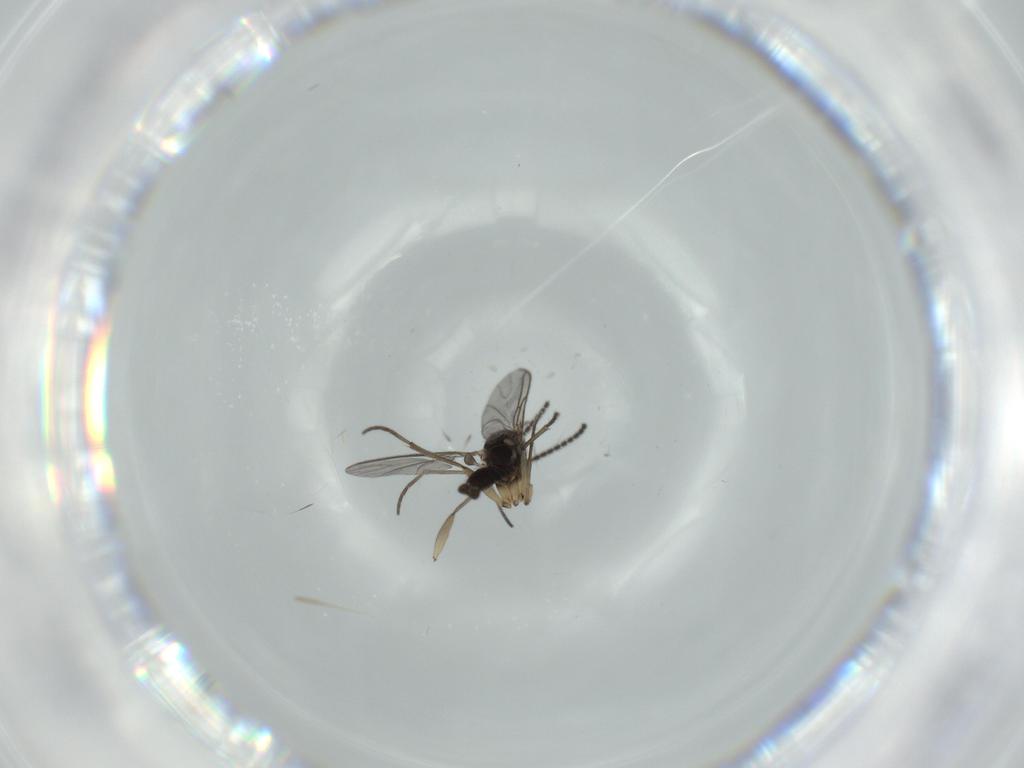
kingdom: Animalia
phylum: Arthropoda
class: Insecta
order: Diptera
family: Sciaridae
